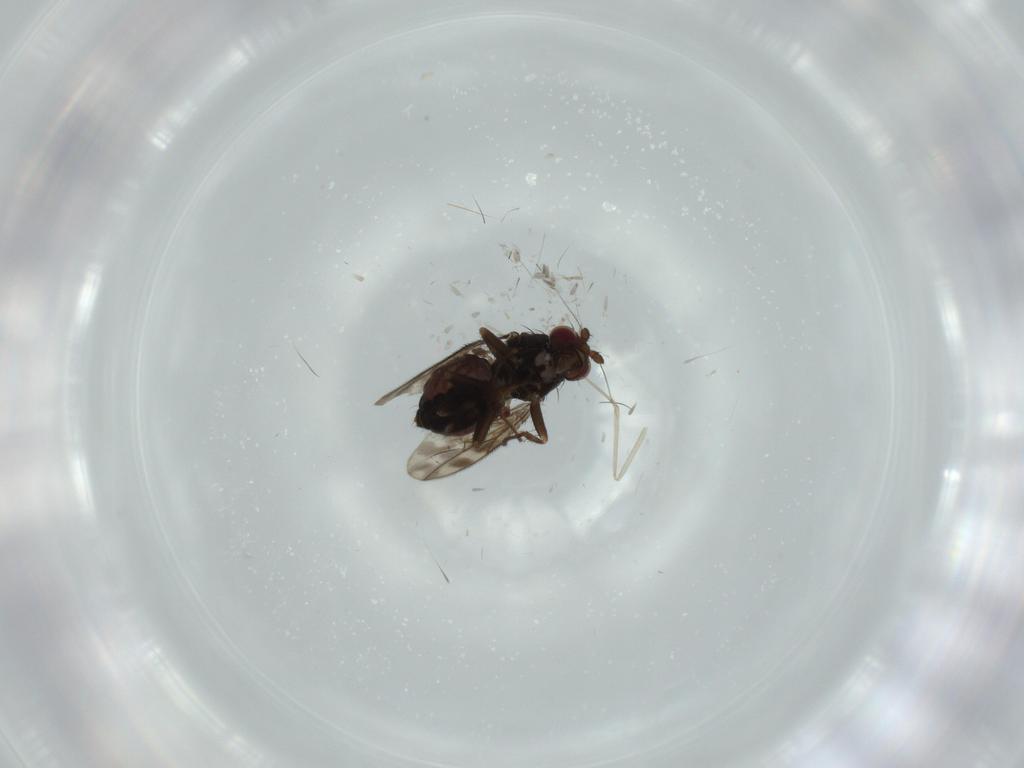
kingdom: Animalia
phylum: Arthropoda
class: Insecta
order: Diptera
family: Sphaeroceridae
